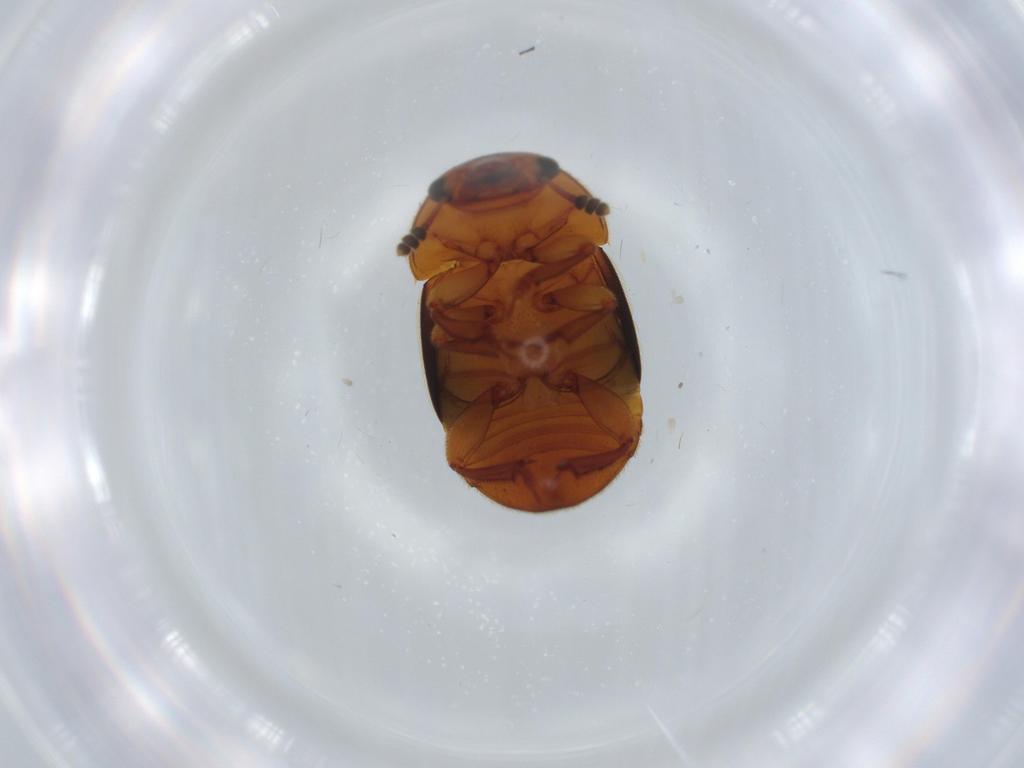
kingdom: Animalia
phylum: Arthropoda
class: Insecta
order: Coleoptera
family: Nitidulidae
